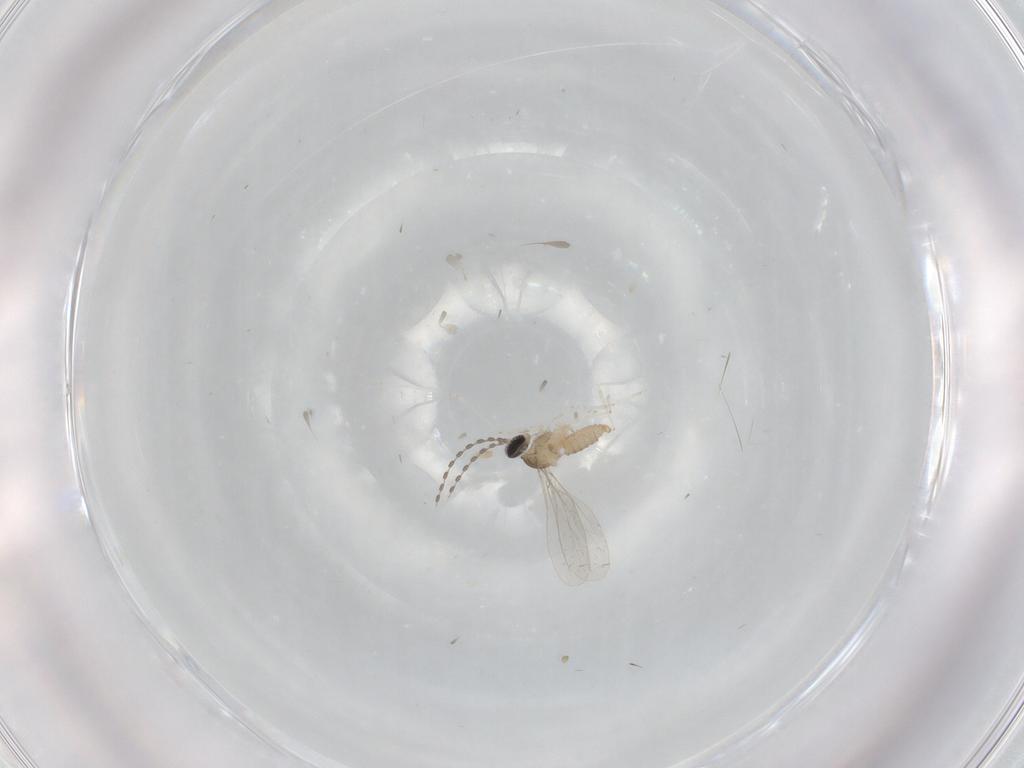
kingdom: Animalia
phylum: Arthropoda
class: Insecta
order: Diptera
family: Cecidomyiidae
